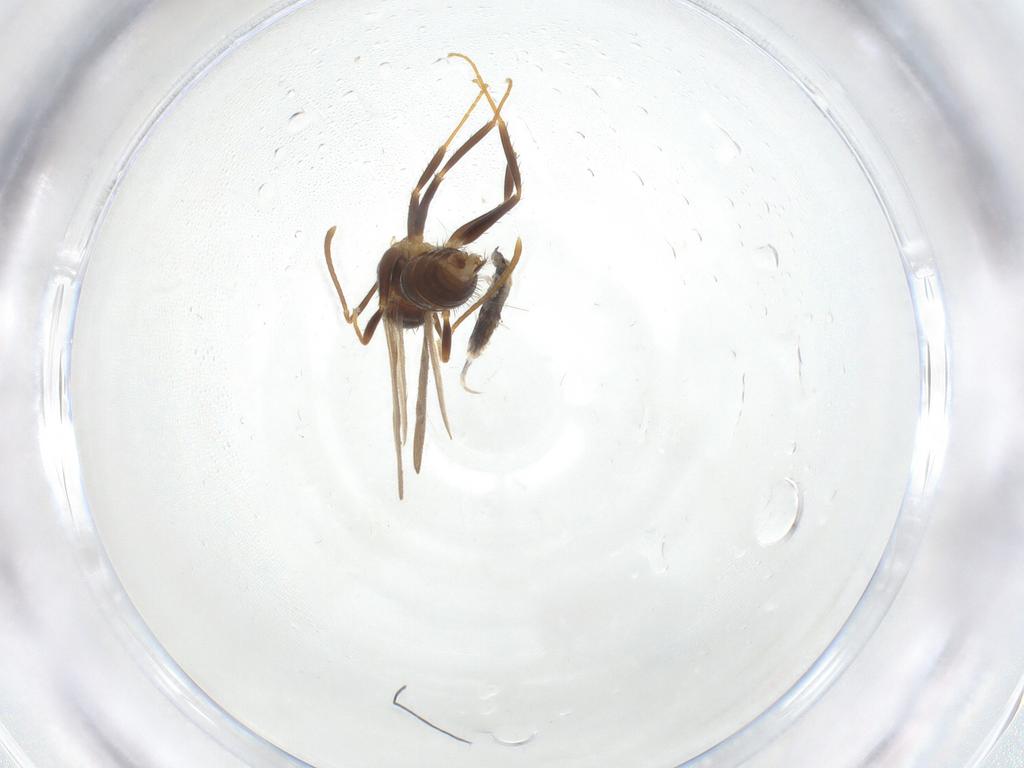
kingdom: Animalia
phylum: Arthropoda
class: Insecta
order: Hymenoptera
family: Formicidae
